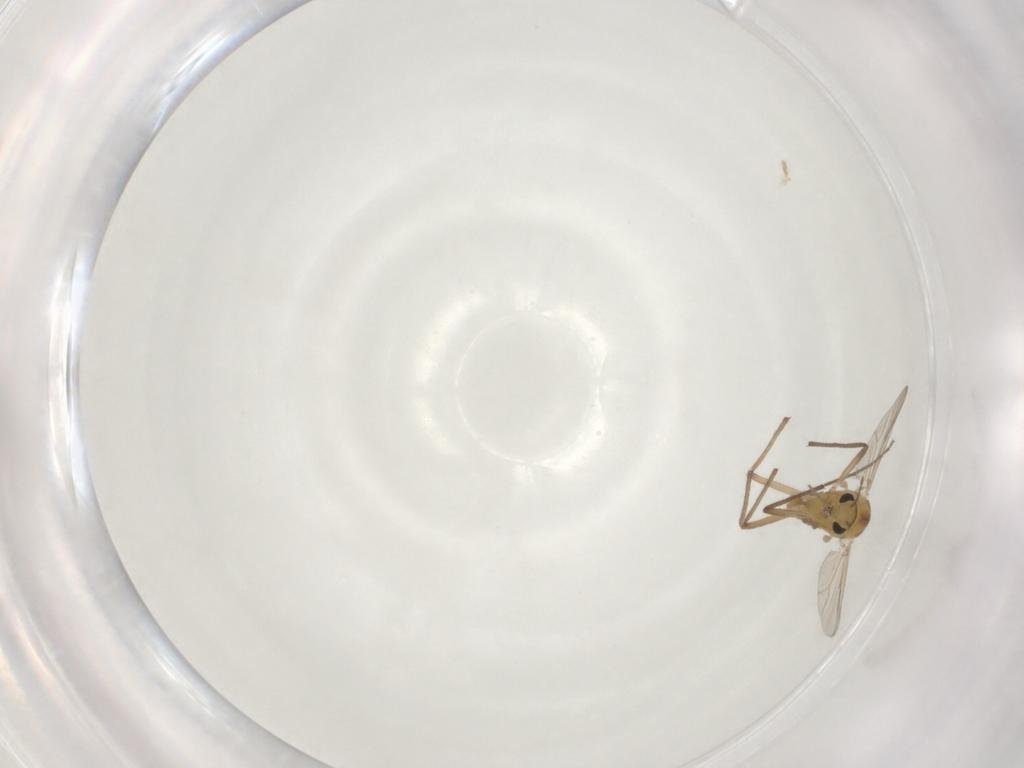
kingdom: Animalia
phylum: Arthropoda
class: Insecta
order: Diptera
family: Chironomidae
